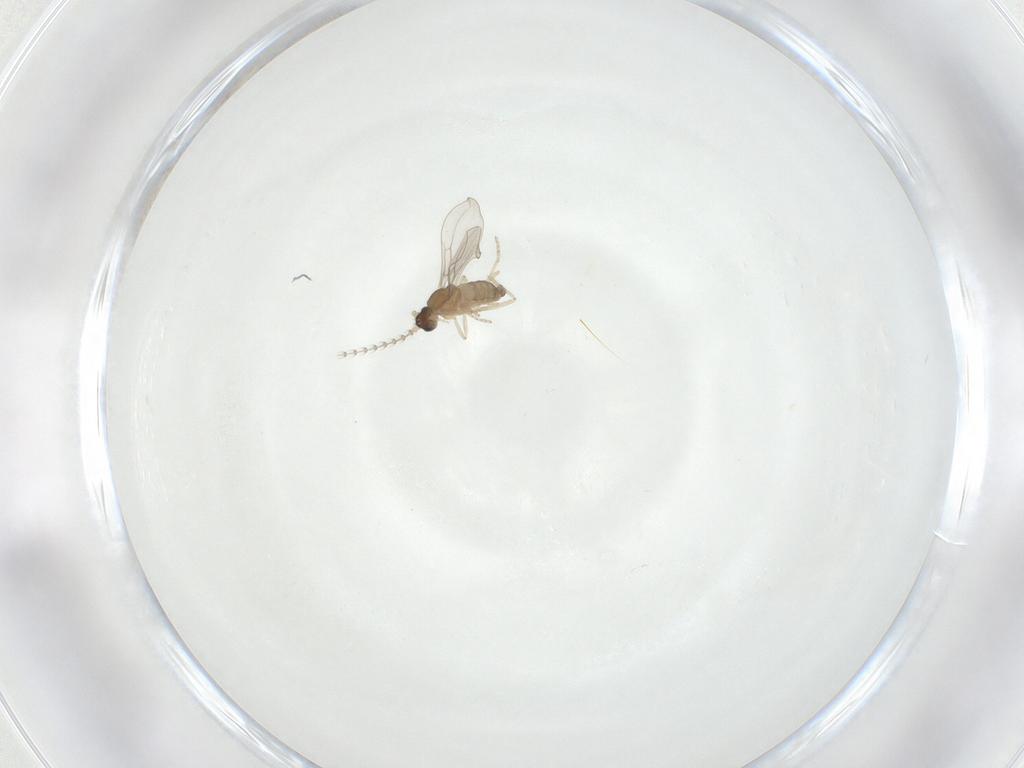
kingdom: Animalia
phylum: Arthropoda
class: Insecta
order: Diptera
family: Cecidomyiidae
